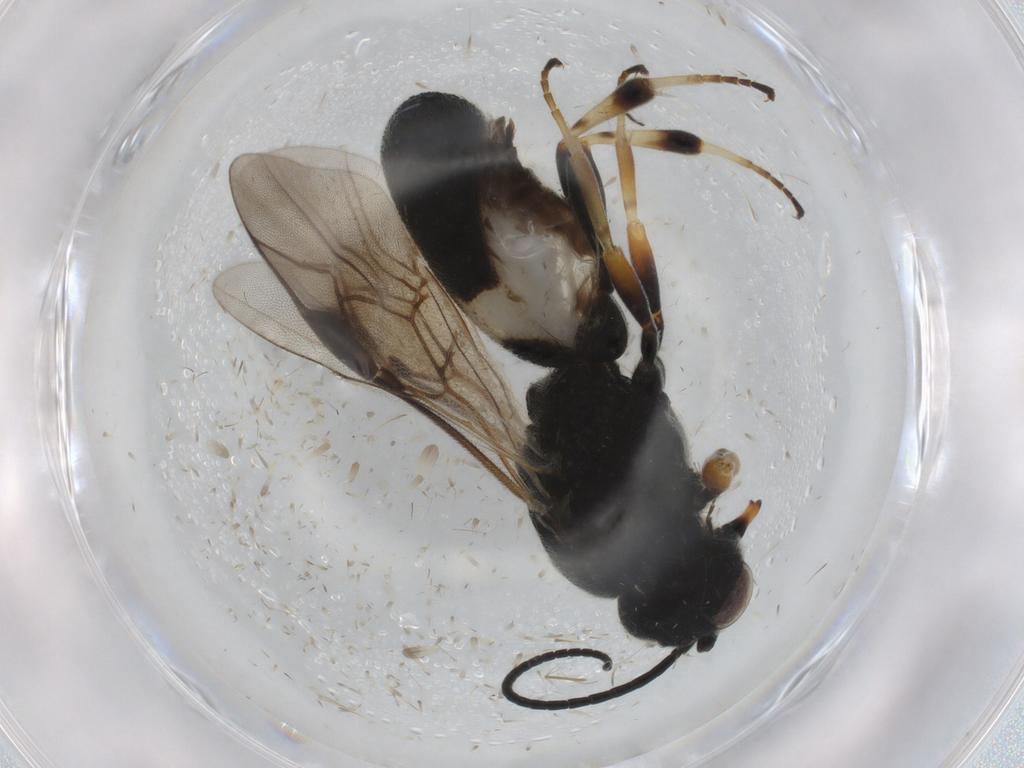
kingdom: Animalia
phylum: Arthropoda
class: Insecta
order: Hymenoptera
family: Braconidae
